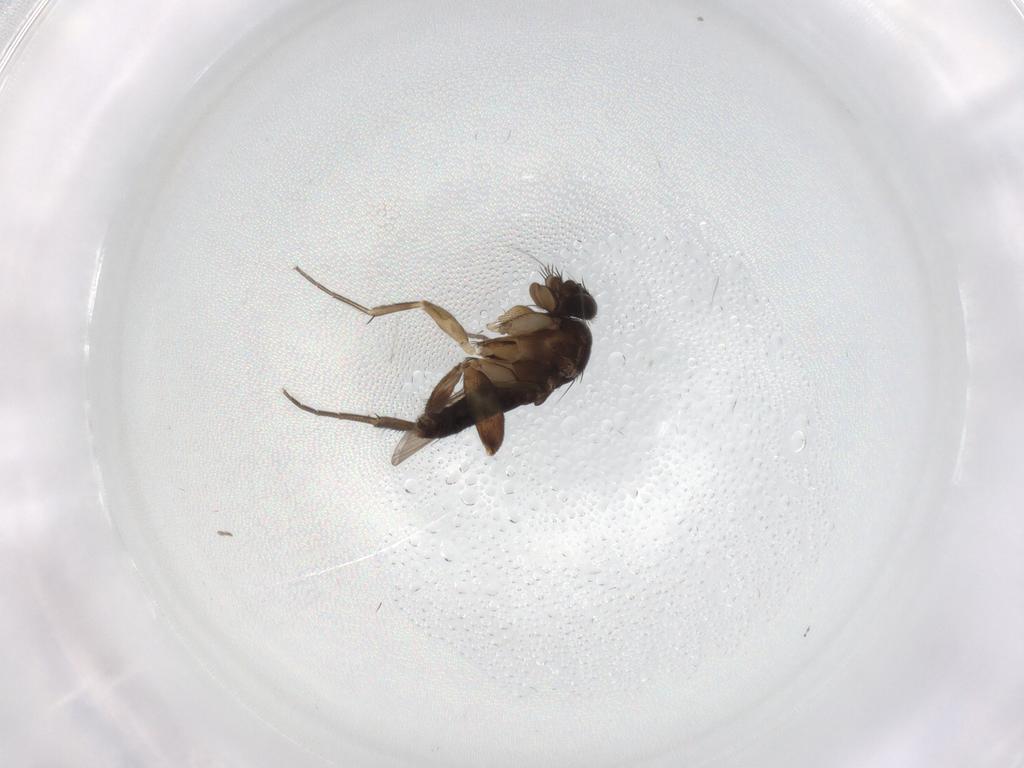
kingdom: Animalia
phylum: Arthropoda
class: Insecta
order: Diptera
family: Phoridae
